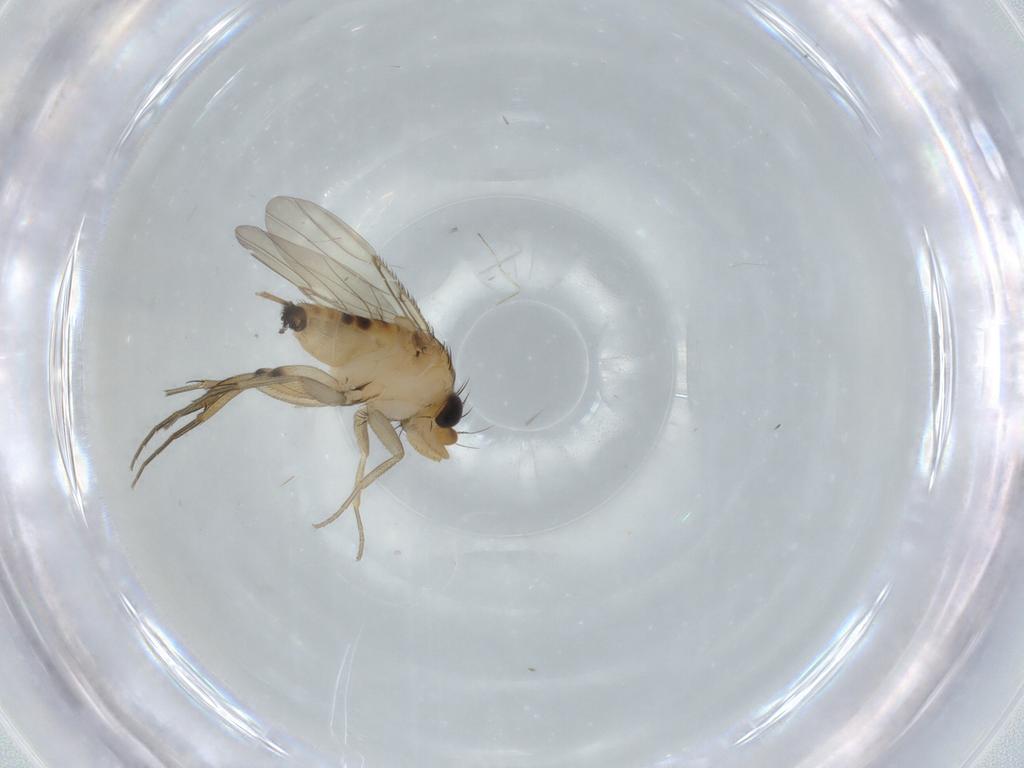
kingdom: Animalia
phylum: Arthropoda
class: Insecta
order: Diptera
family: Phoridae
